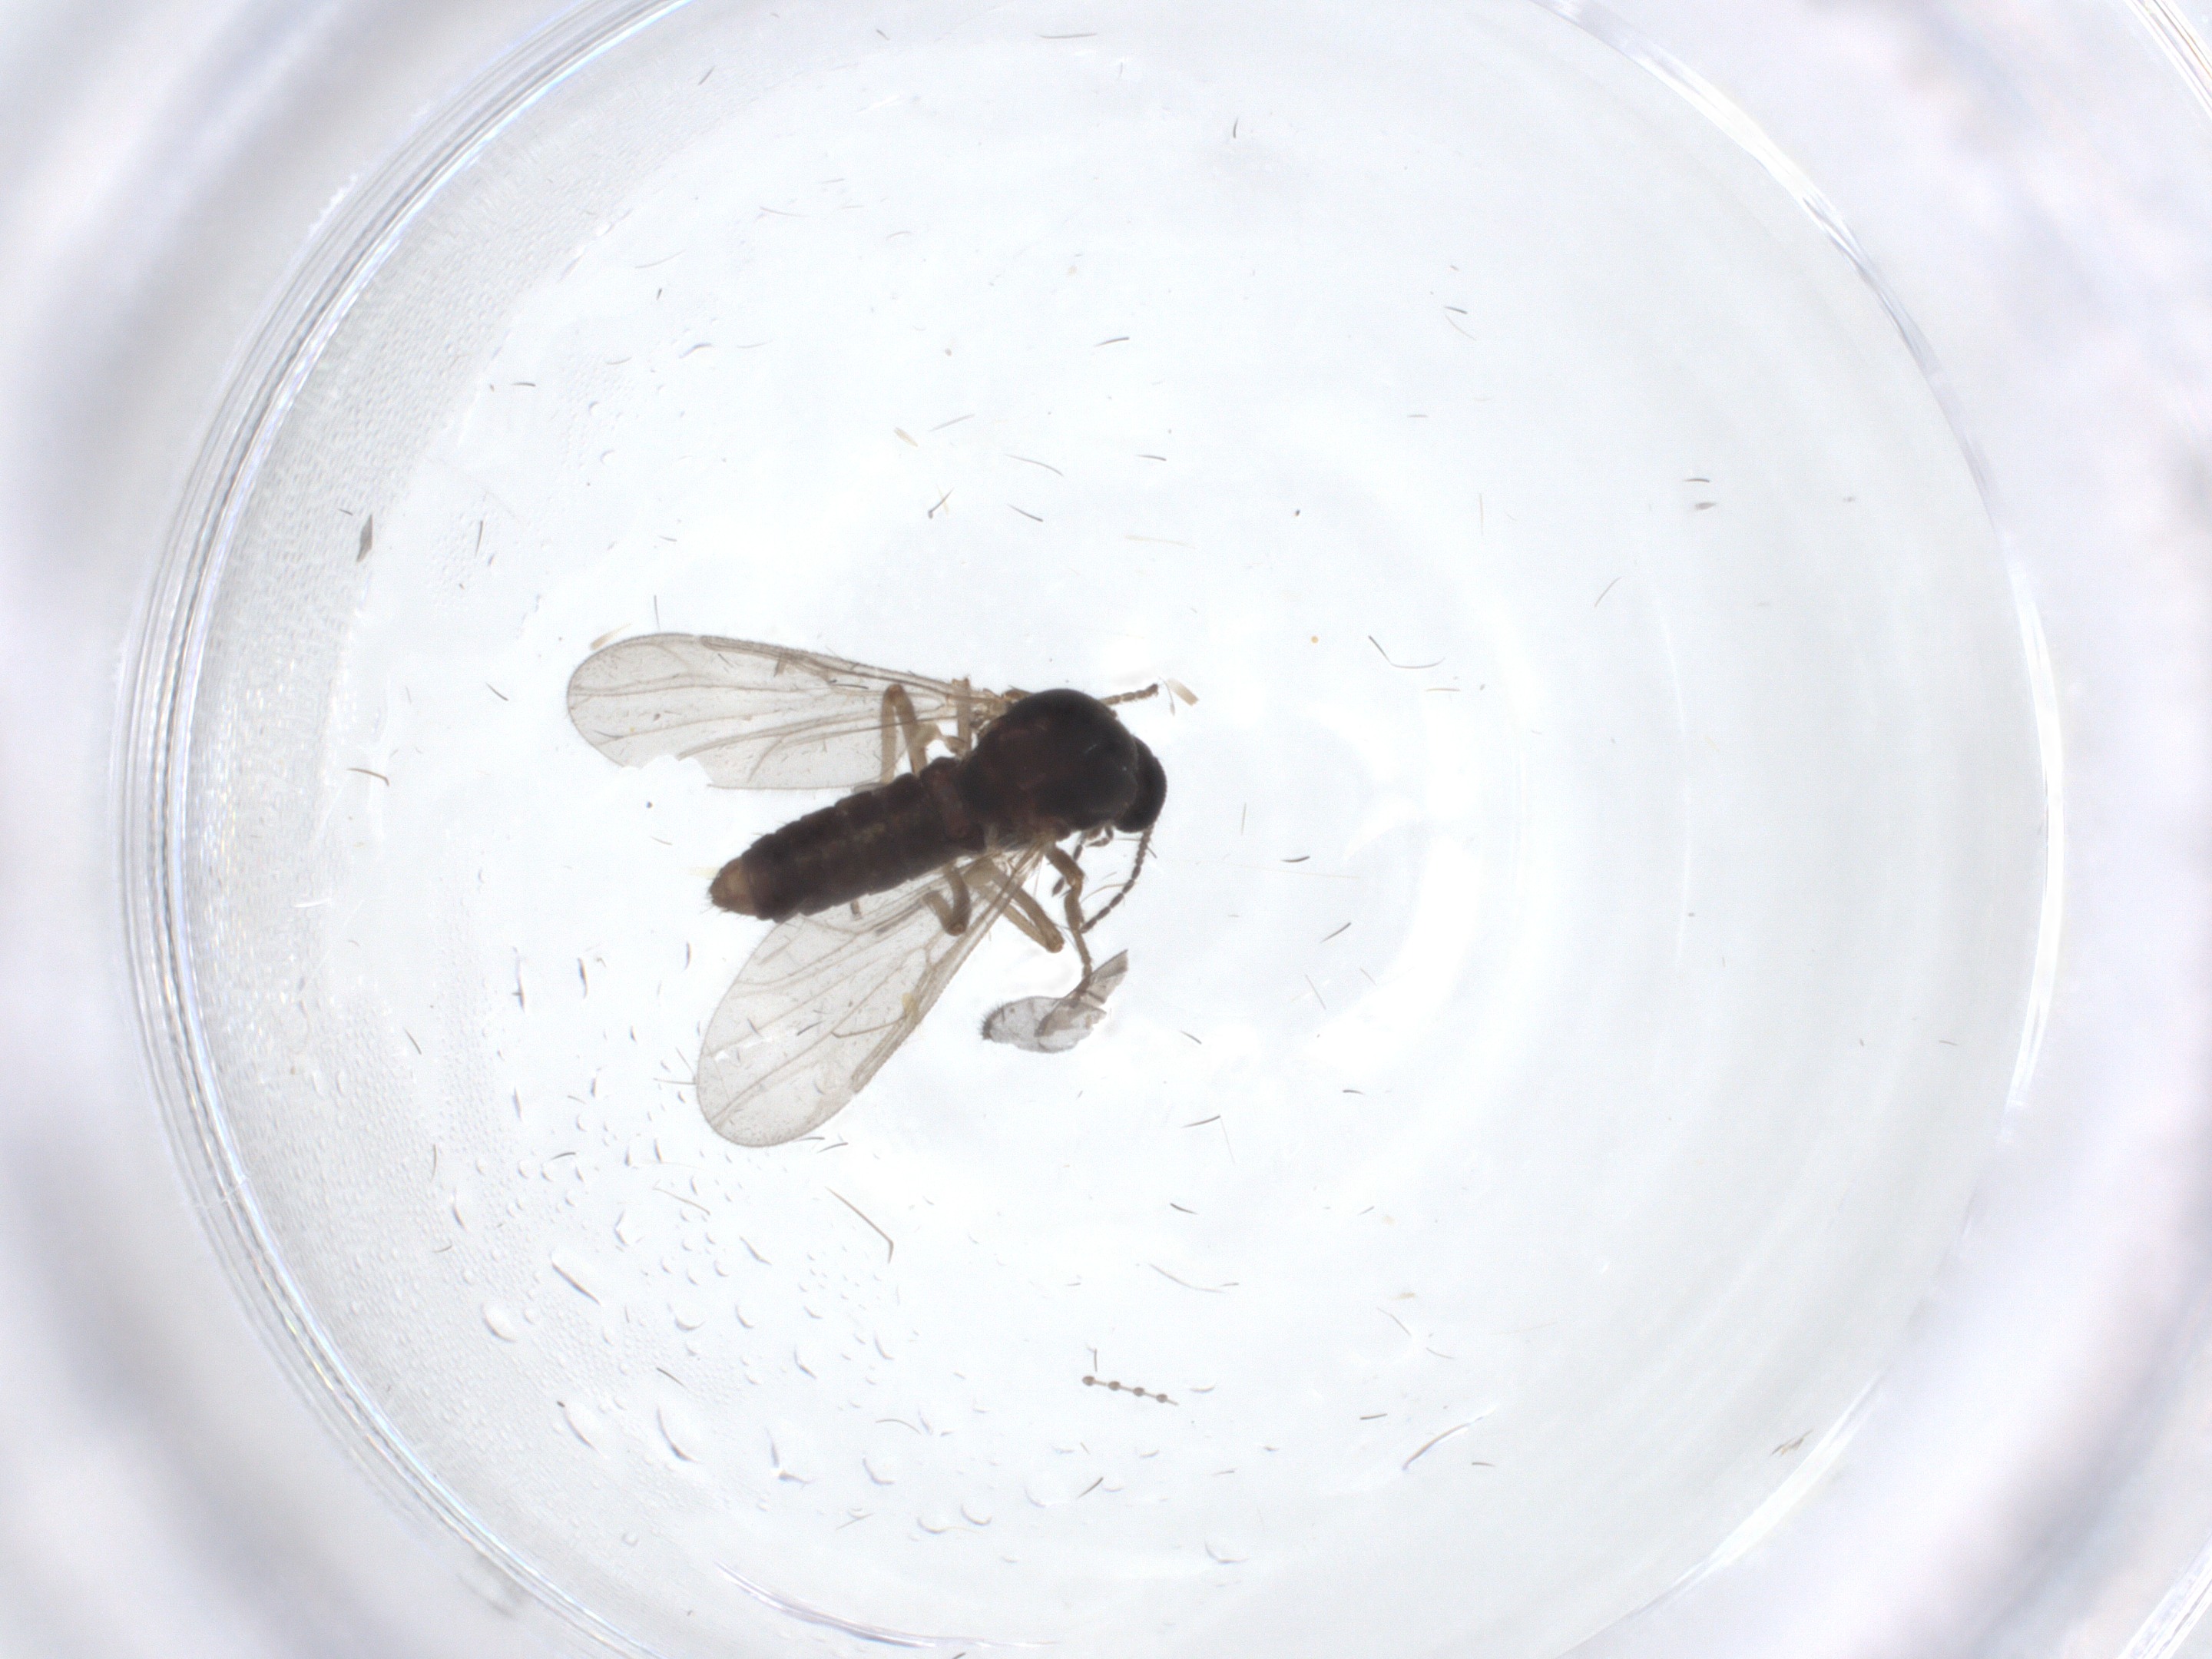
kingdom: Animalia
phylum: Arthropoda
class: Insecta
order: Diptera
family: Ceratopogonidae
